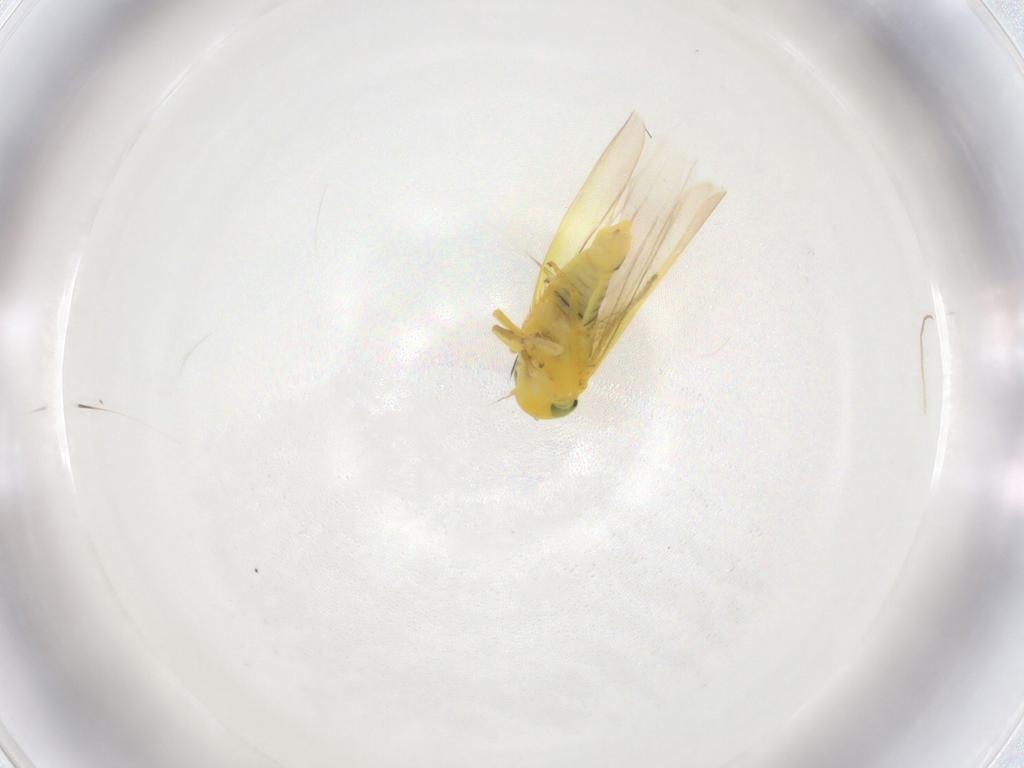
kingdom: Animalia
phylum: Arthropoda
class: Insecta
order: Hemiptera
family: Cicadellidae
